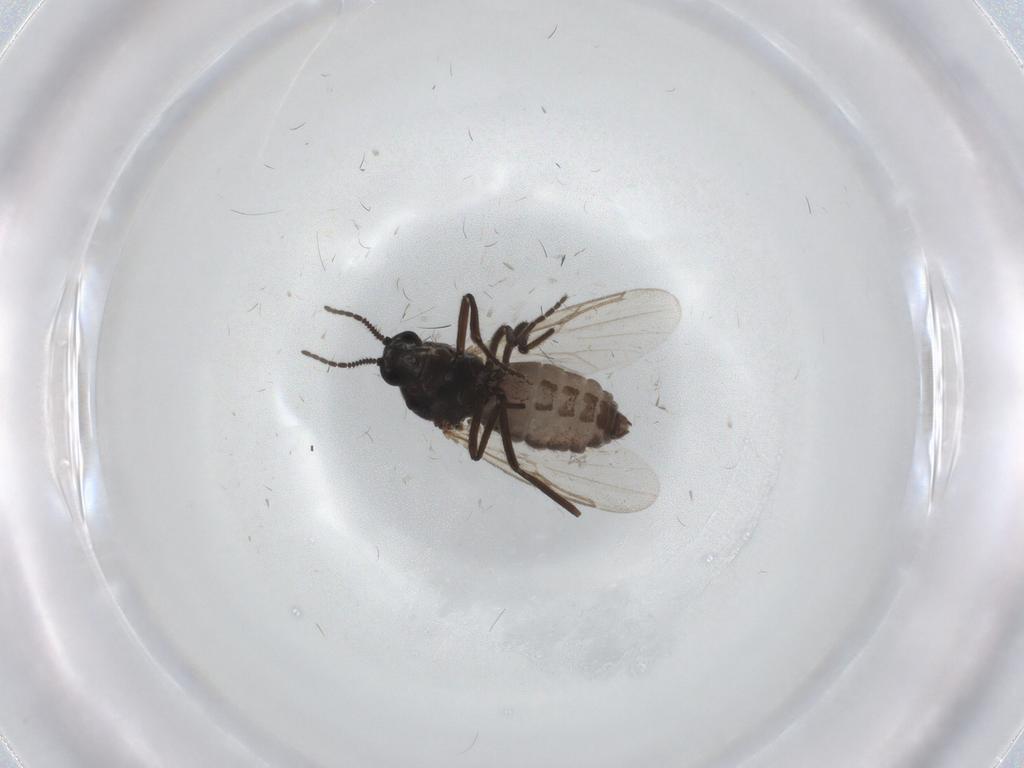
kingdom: Animalia
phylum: Arthropoda
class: Insecta
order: Diptera
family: Ceratopogonidae
